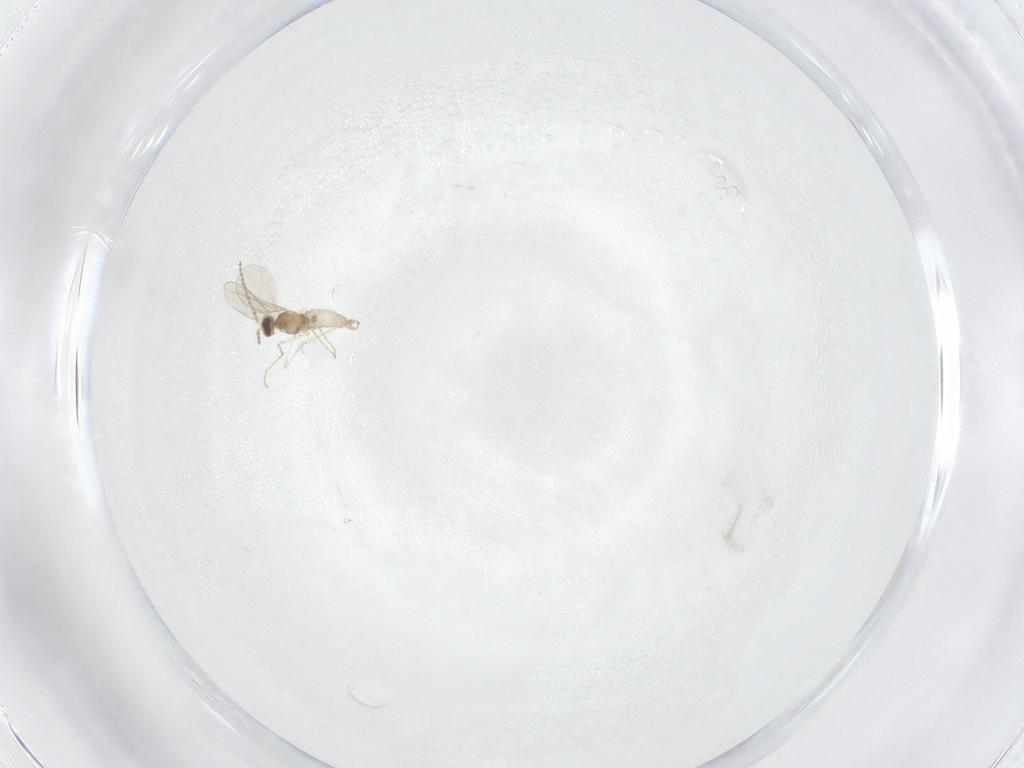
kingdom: Animalia
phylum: Arthropoda
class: Insecta
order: Diptera
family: Cecidomyiidae
